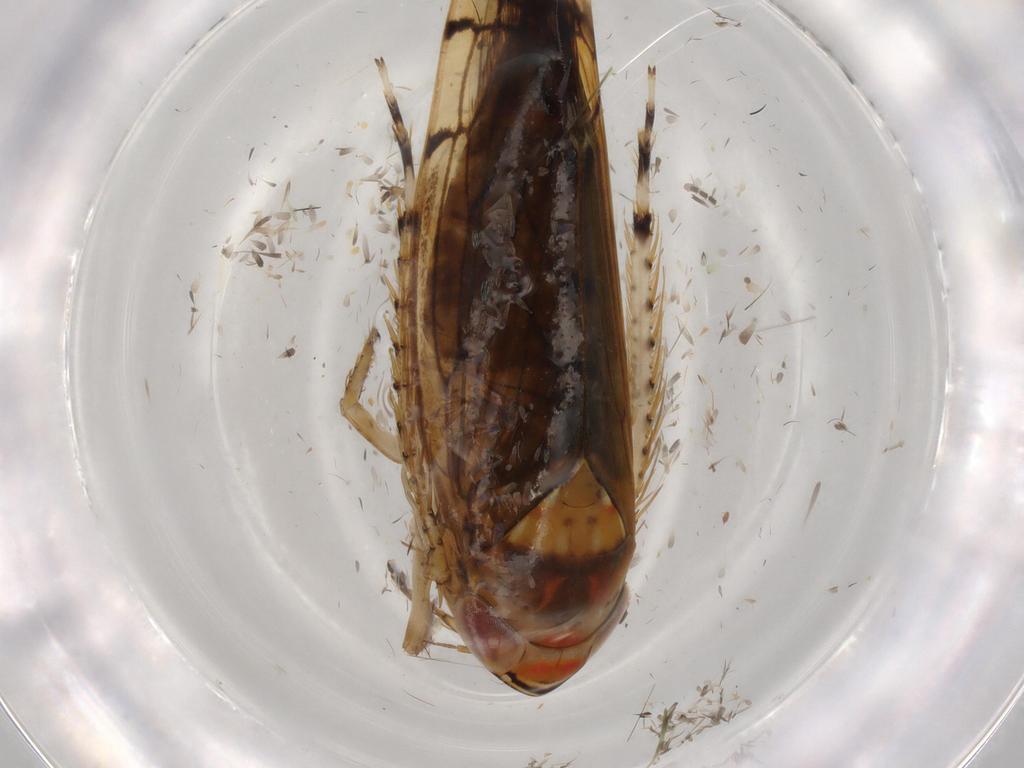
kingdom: Animalia
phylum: Arthropoda
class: Insecta
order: Hemiptera
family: Cicadellidae
